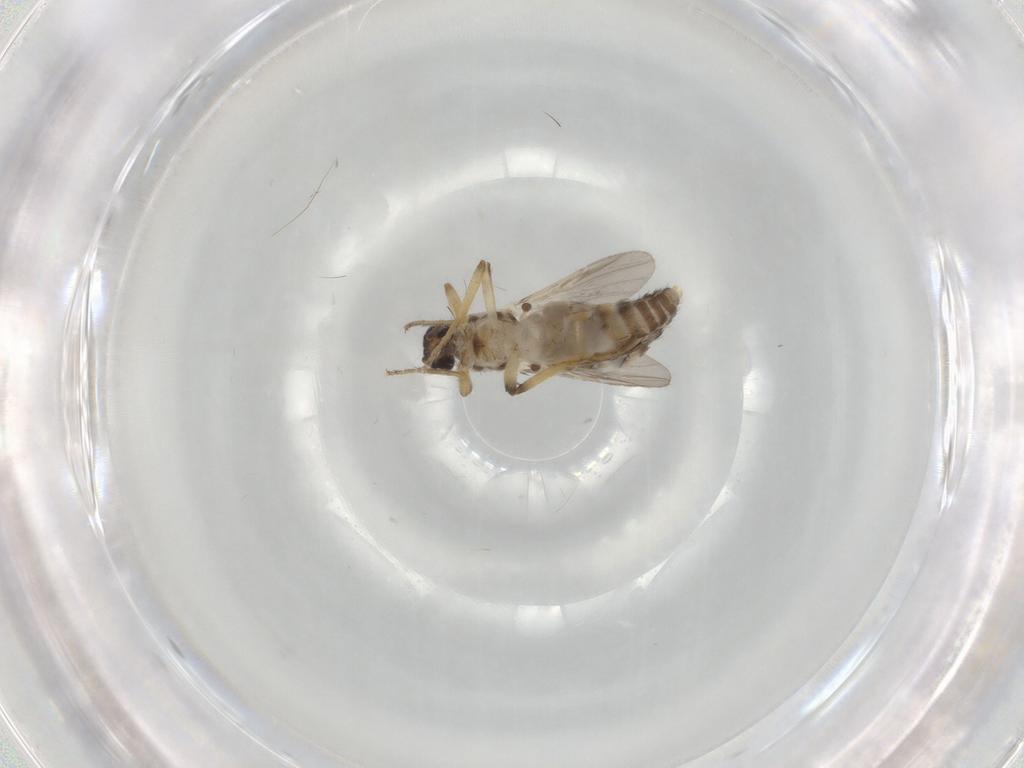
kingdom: Animalia
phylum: Arthropoda
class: Insecta
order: Diptera
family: Ceratopogonidae
